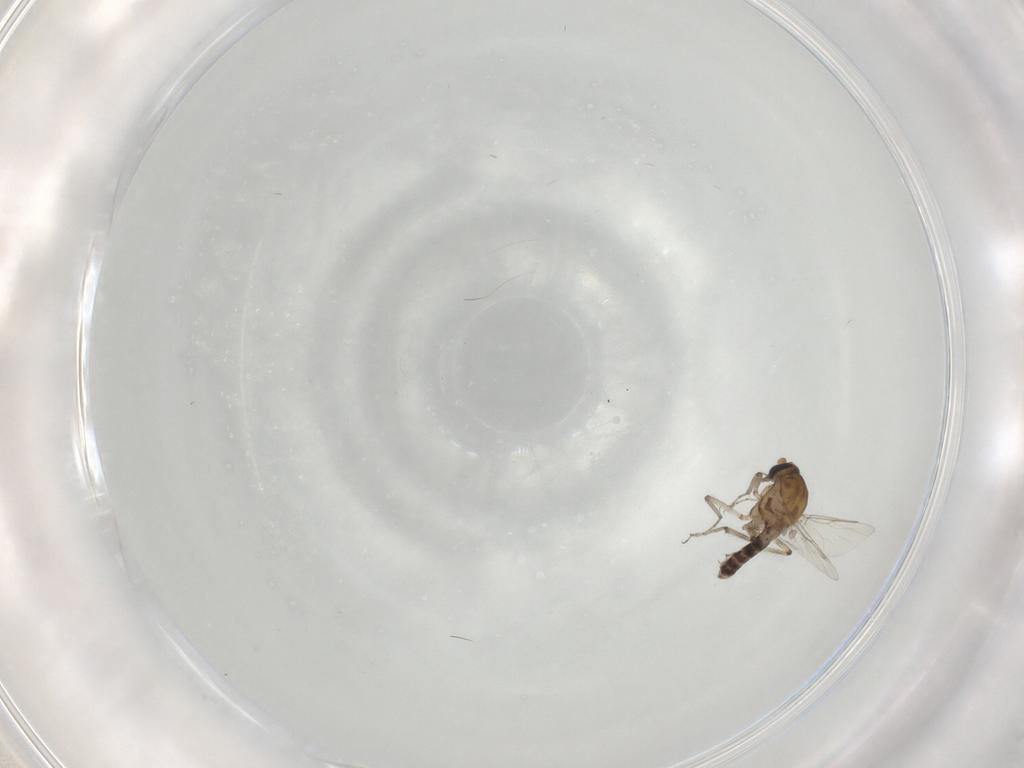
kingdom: Animalia
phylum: Arthropoda
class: Insecta
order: Diptera
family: Ceratopogonidae
